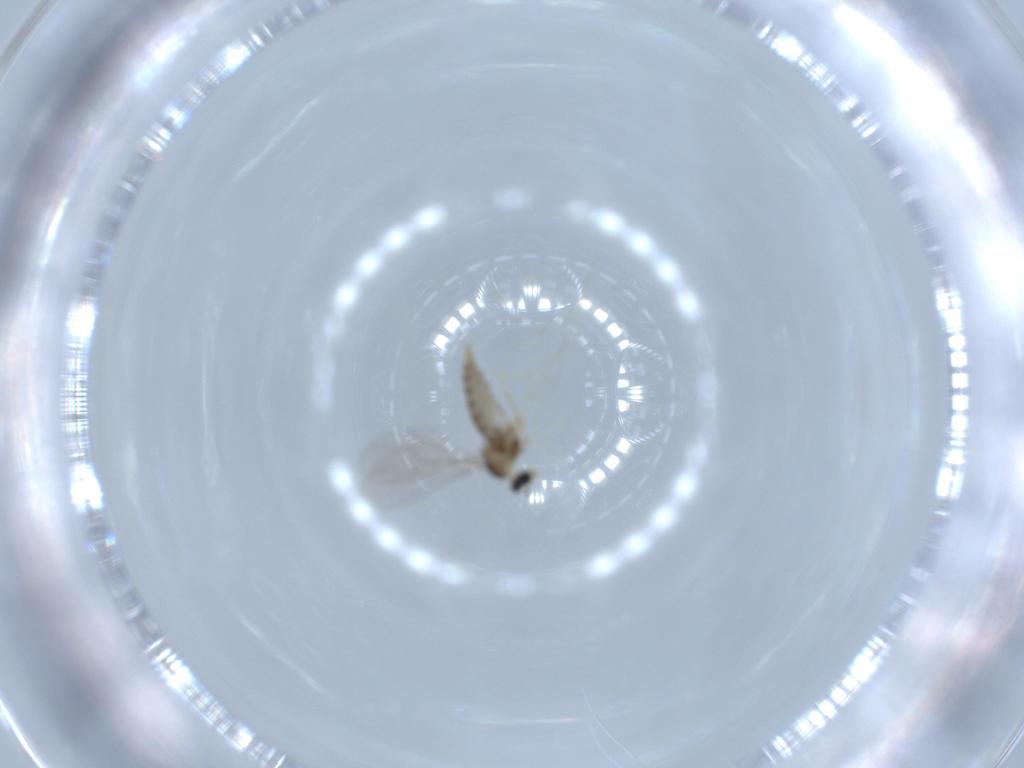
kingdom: Animalia
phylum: Arthropoda
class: Insecta
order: Diptera
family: Cecidomyiidae
